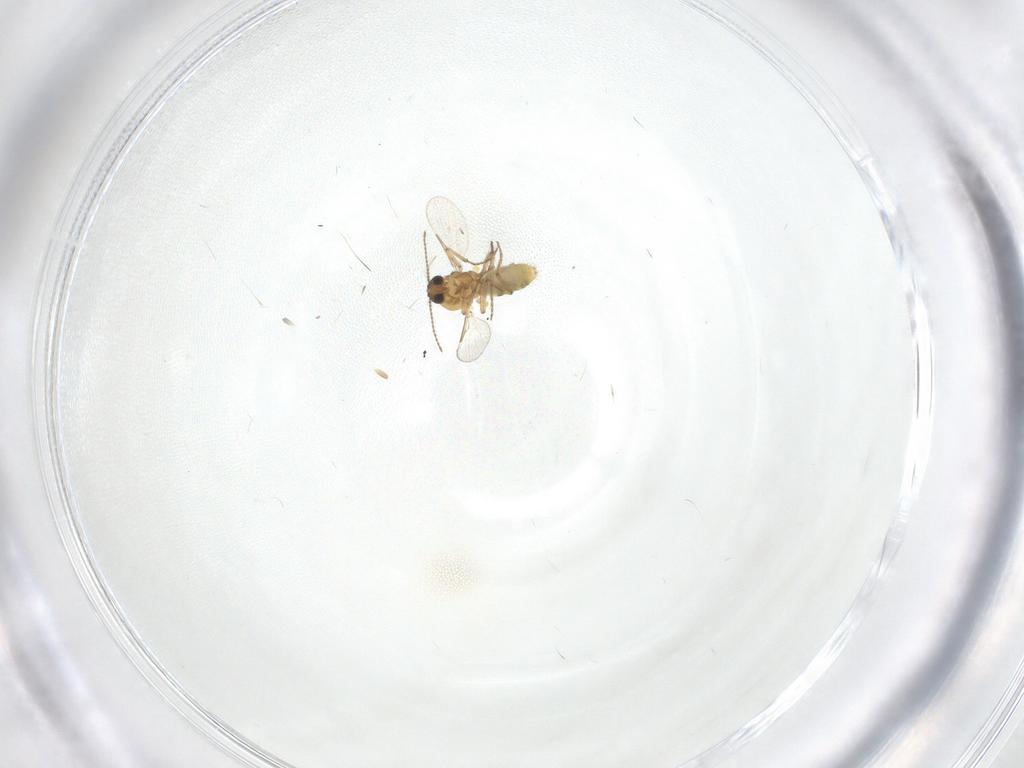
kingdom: Animalia
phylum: Arthropoda
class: Insecta
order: Diptera
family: Ceratopogonidae
